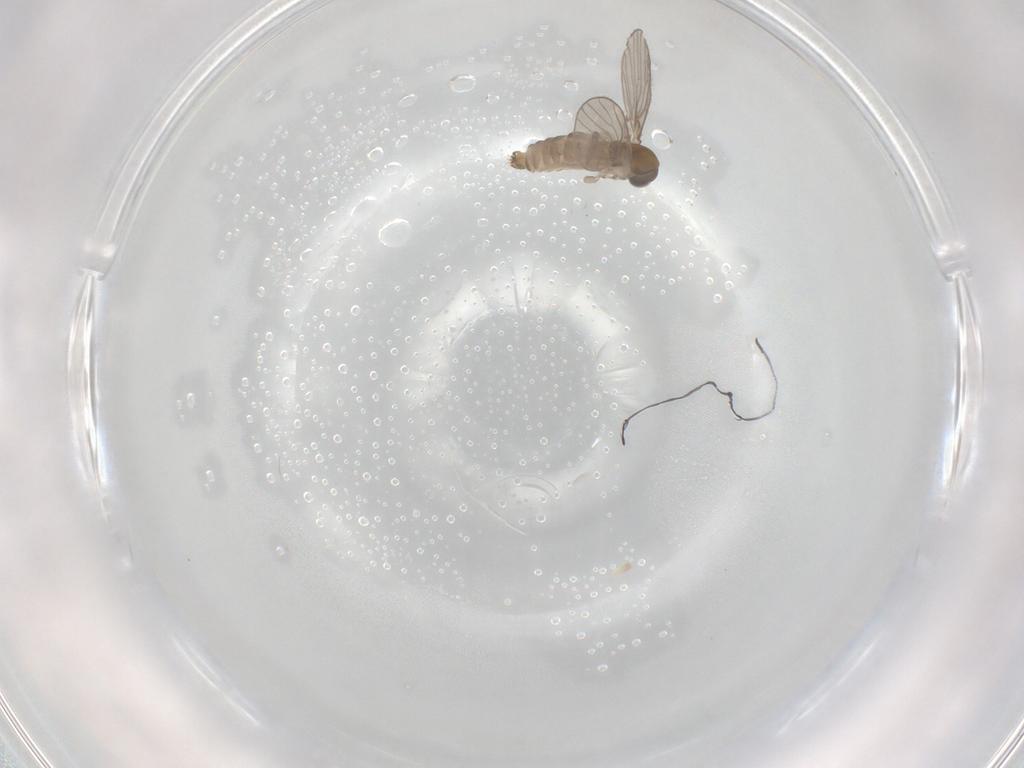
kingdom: Animalia
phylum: Arthropoda
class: Insecta
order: Diptera
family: Psychodidae
